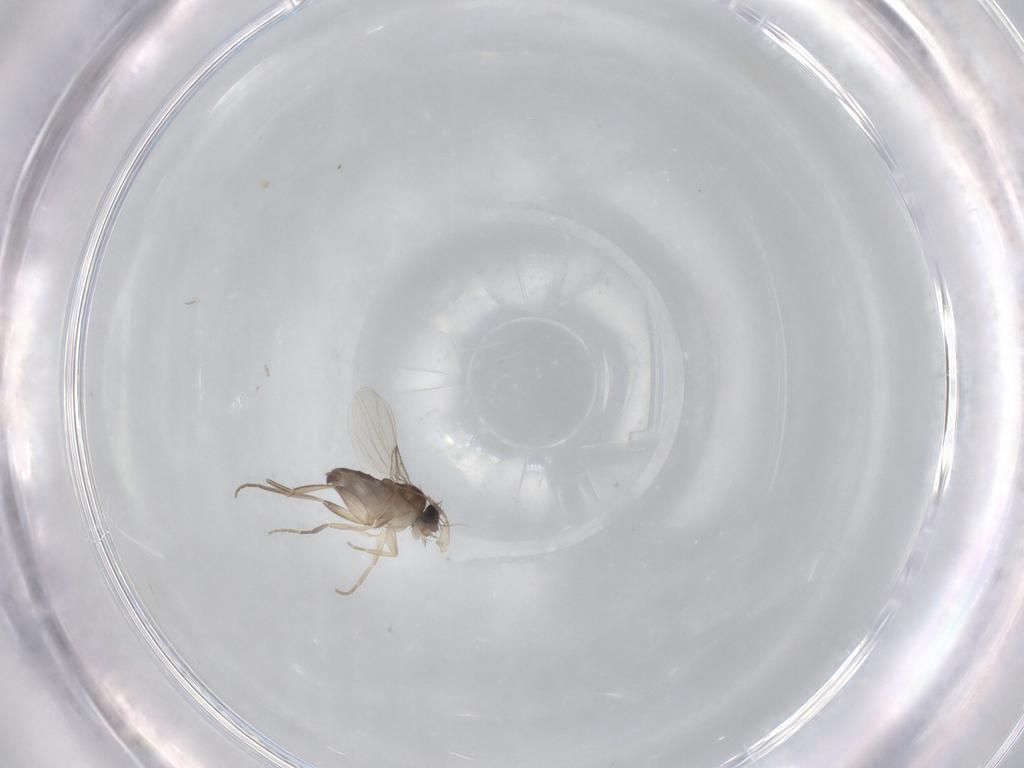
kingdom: Animalia
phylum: Arthropoda
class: Insecta
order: Diptera
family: Phoridae
